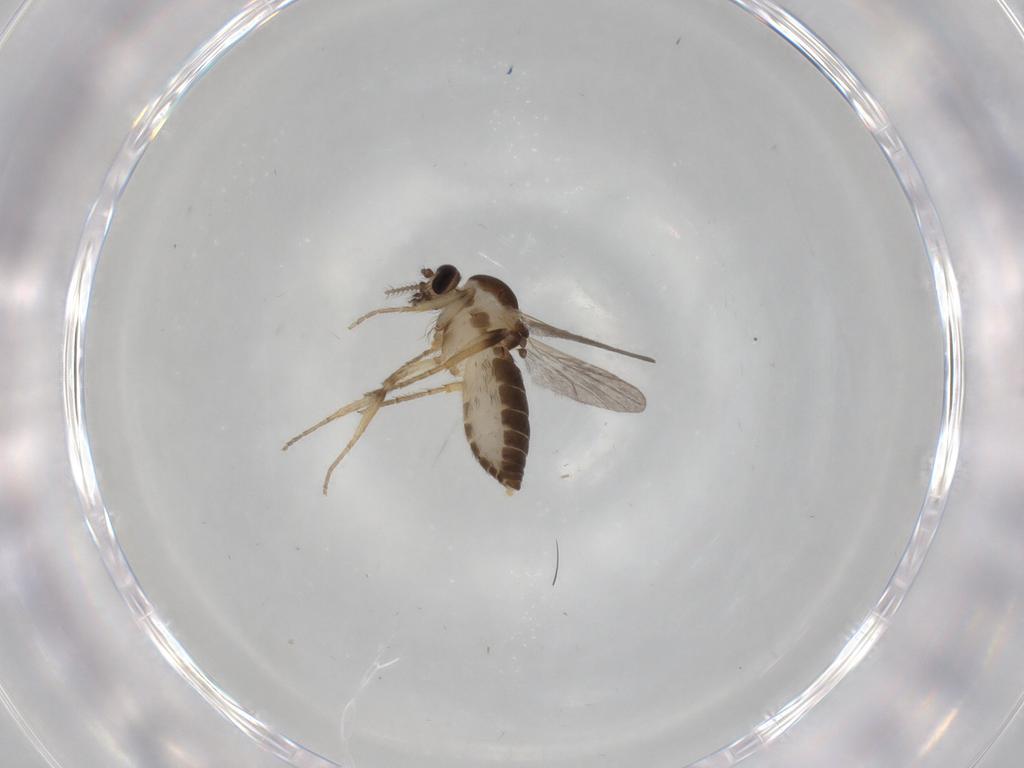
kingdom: Animalia
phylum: Arthropoda
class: Insecta
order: Diptera
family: Ceratopogonidae
